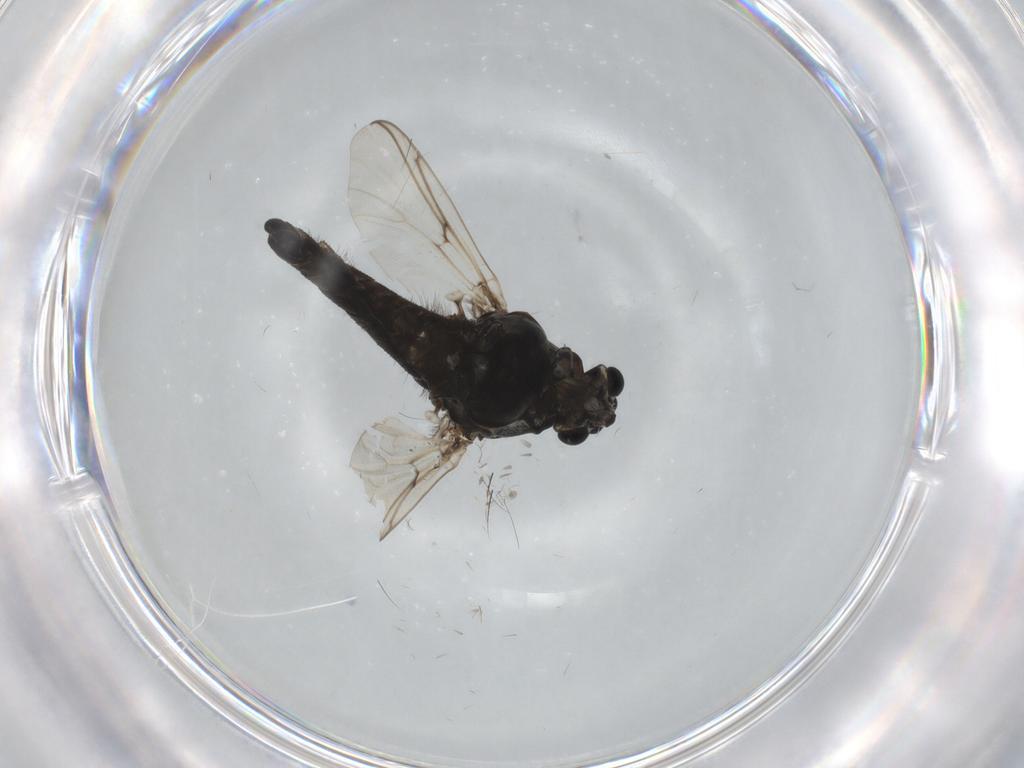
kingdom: Animalia
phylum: Arthropoda
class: Insecta
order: Diptera
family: Chironomidae
